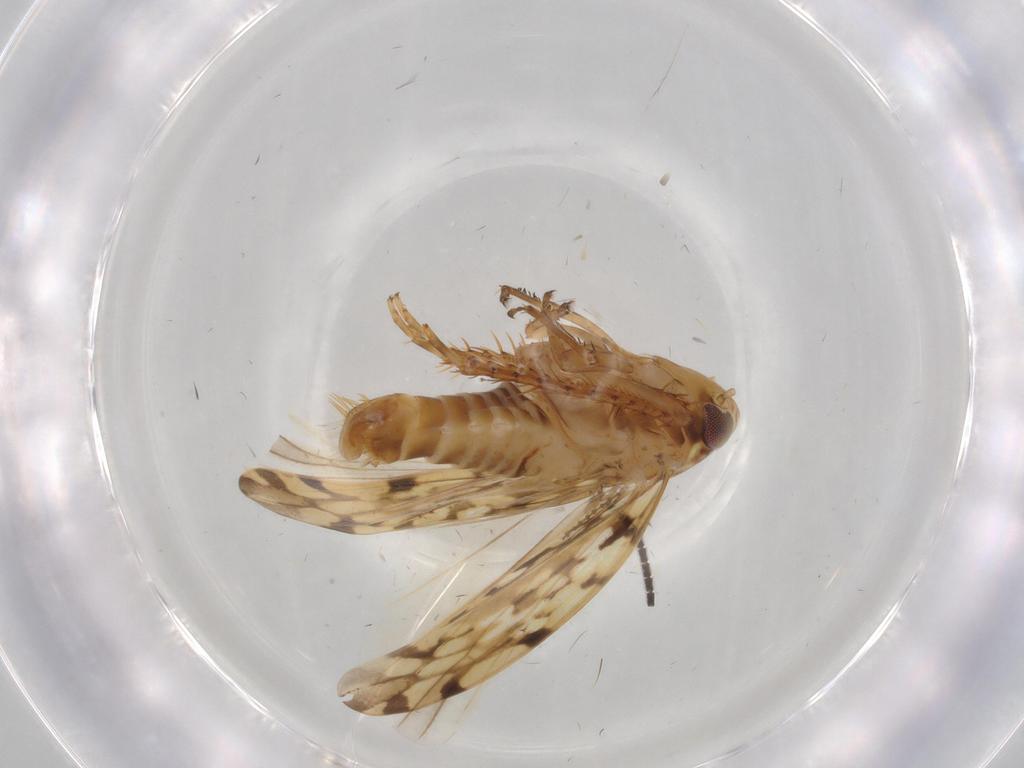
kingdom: Animalia
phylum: Arthropoda
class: Insecta
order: Hemiptera
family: Cicadellidae
